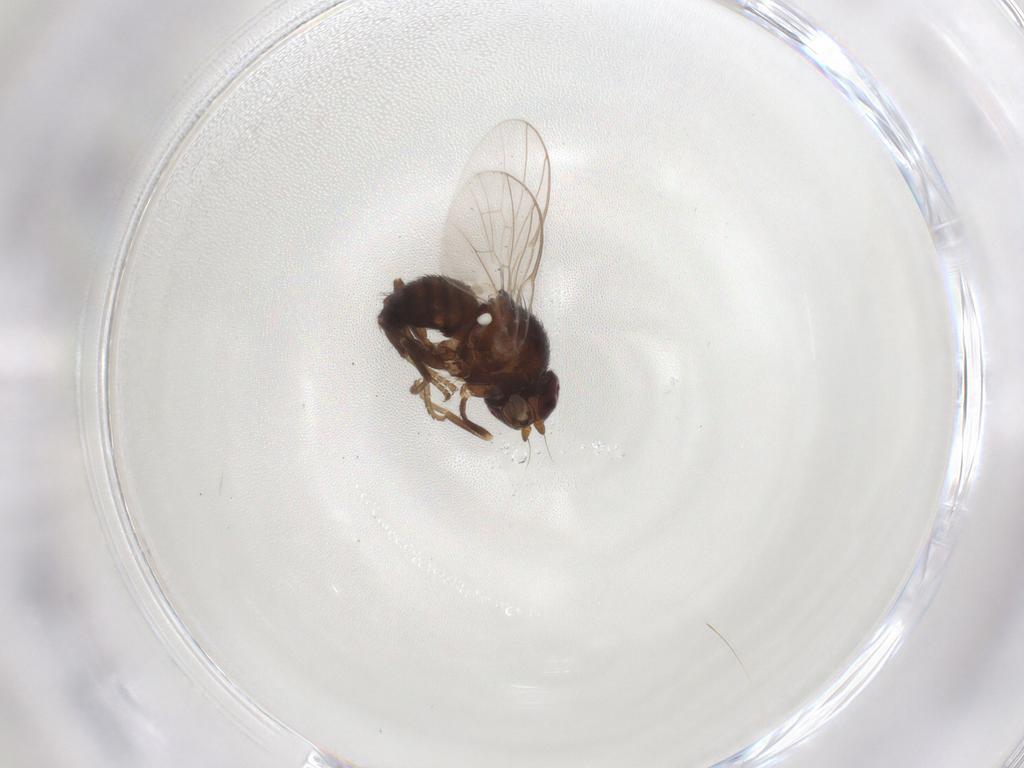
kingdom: Animalia
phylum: Arthropoda
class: Insecta
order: Diptera
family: Agromyzidae
